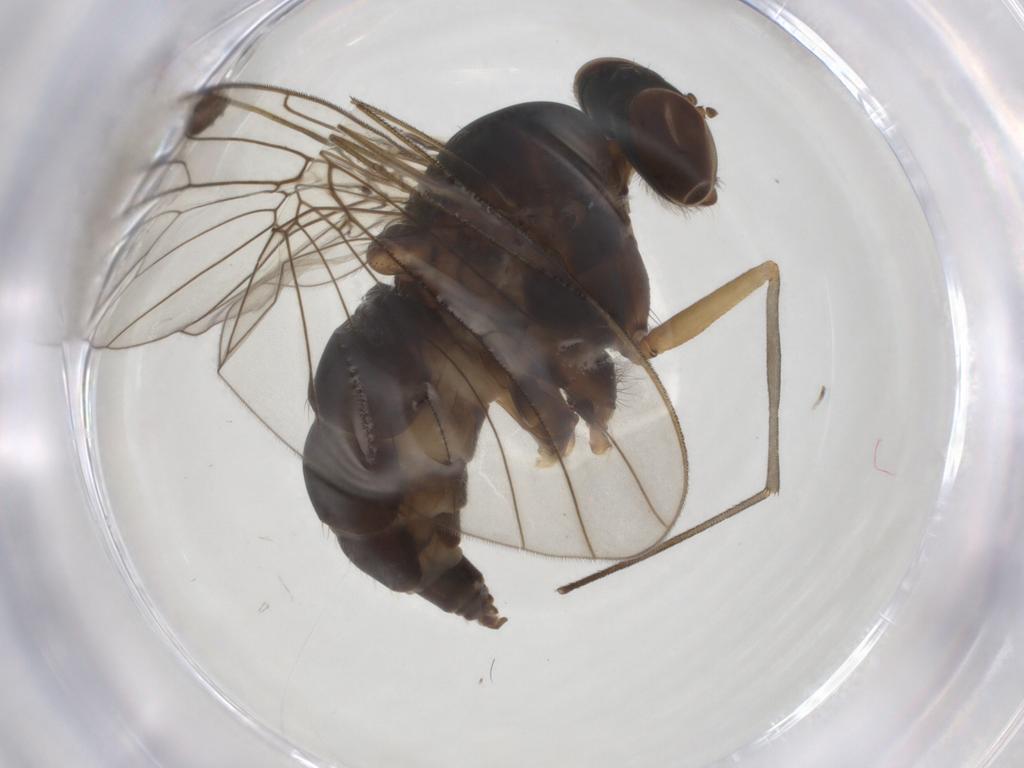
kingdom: Animalia
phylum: Arthropoda
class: Insecta
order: Diptera
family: Rhagionidae
